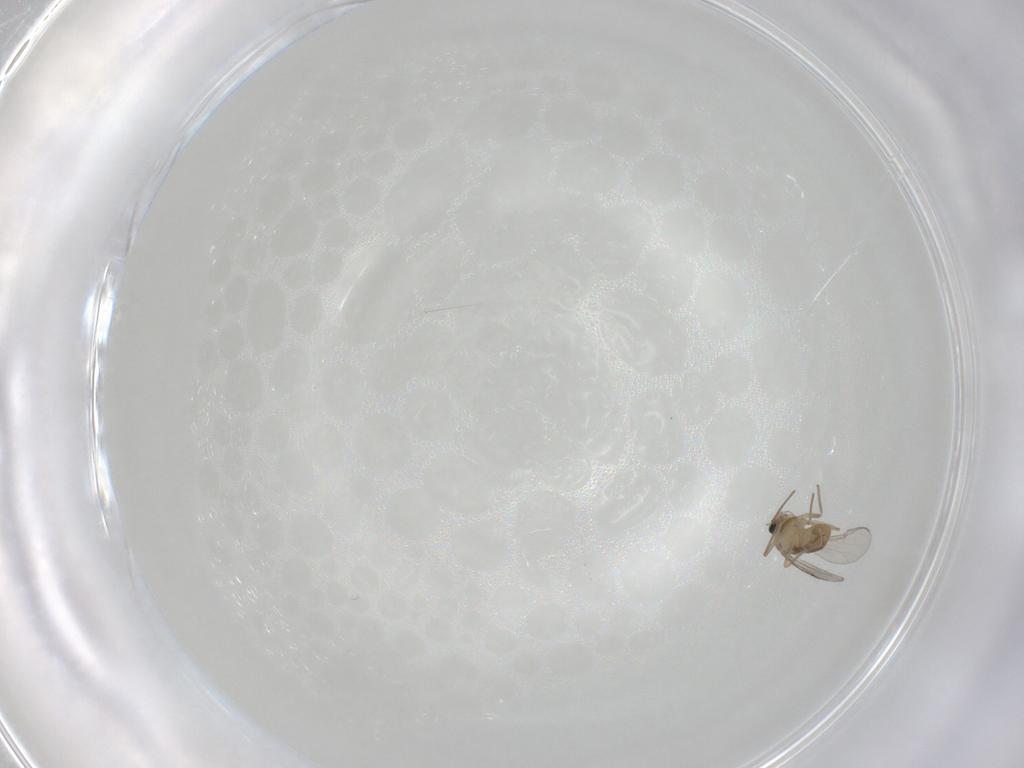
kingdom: Animalia
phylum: Arthropoda
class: Insecta
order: Diptera
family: Chironomidae
